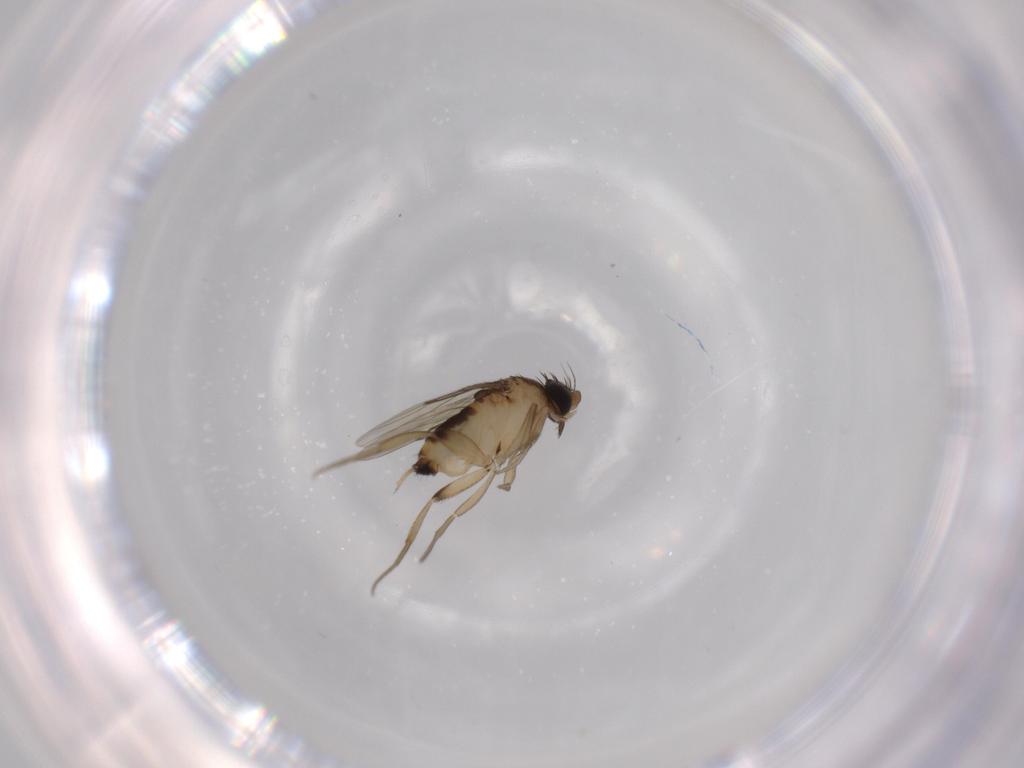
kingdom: Animalia
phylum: Arthropoda
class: Insecta
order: Diptera
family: Phoridae
